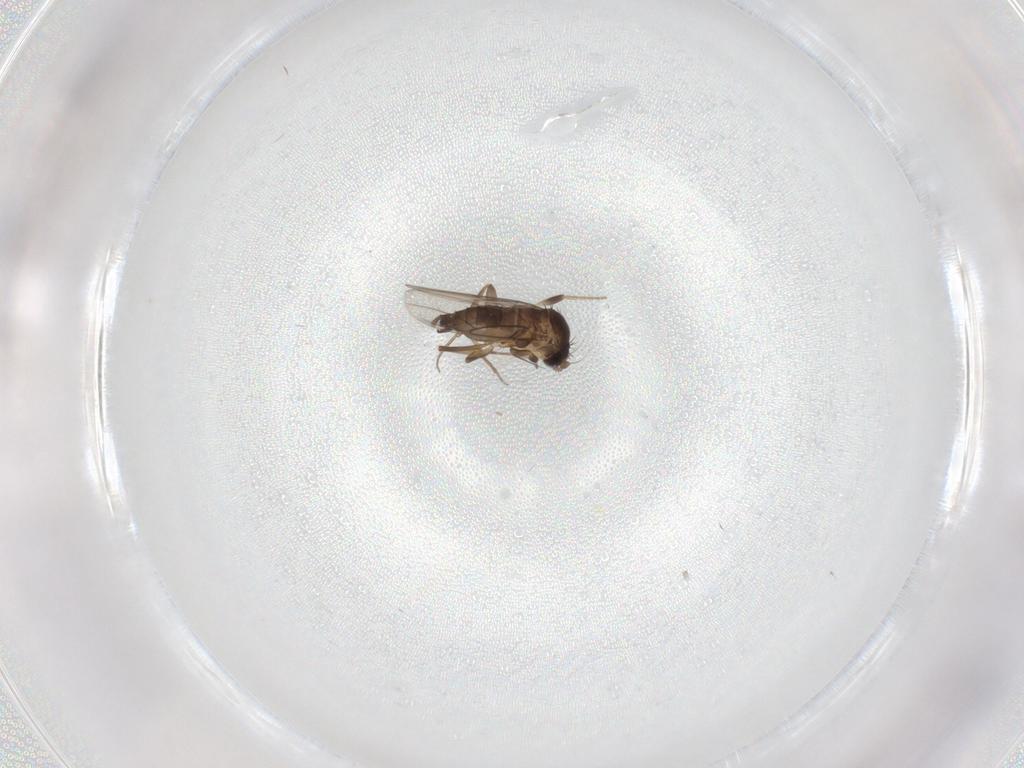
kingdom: Animalia
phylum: Arthropoda
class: Insecta
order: Diptera
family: Phoridae
